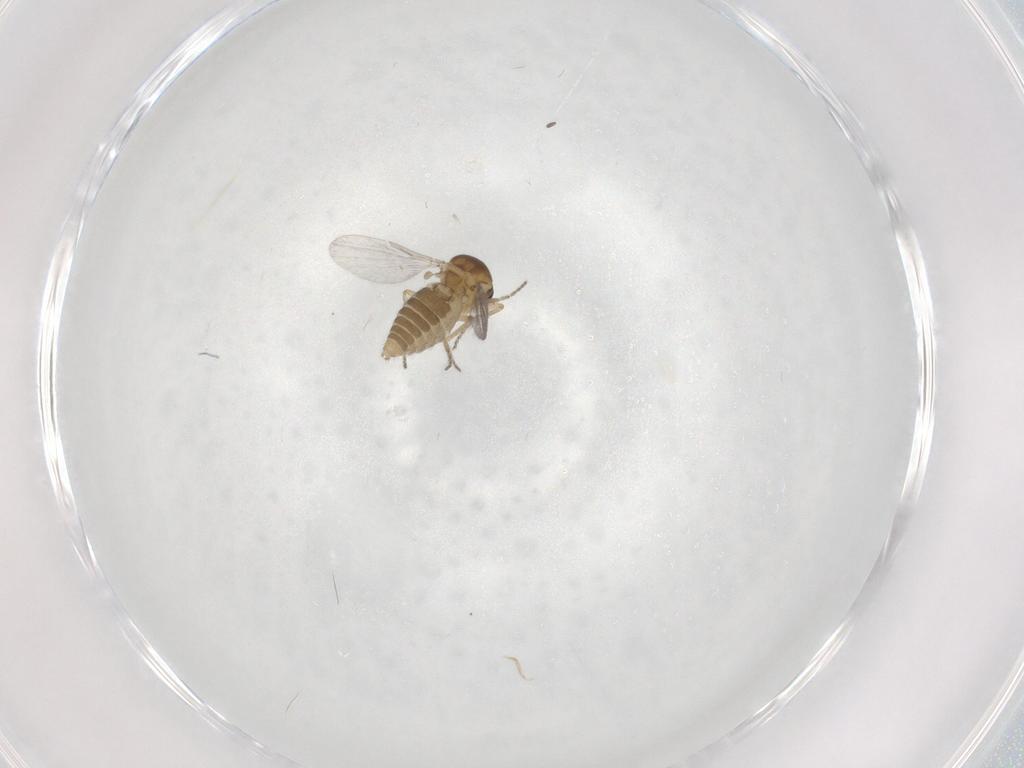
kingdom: Animalia
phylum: Arthropoda
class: Insecta
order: Diptera
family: Ceratopogonidae
